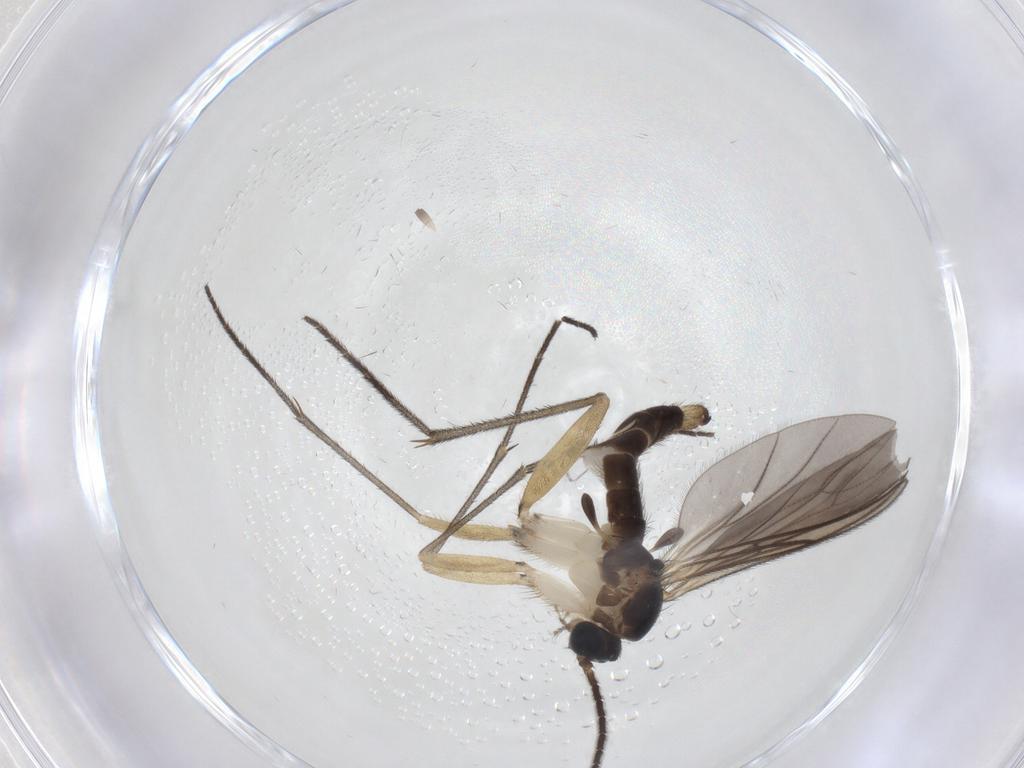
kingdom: Animalia
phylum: Arthropoda
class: Insecta
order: Diptera
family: Sciaridae
